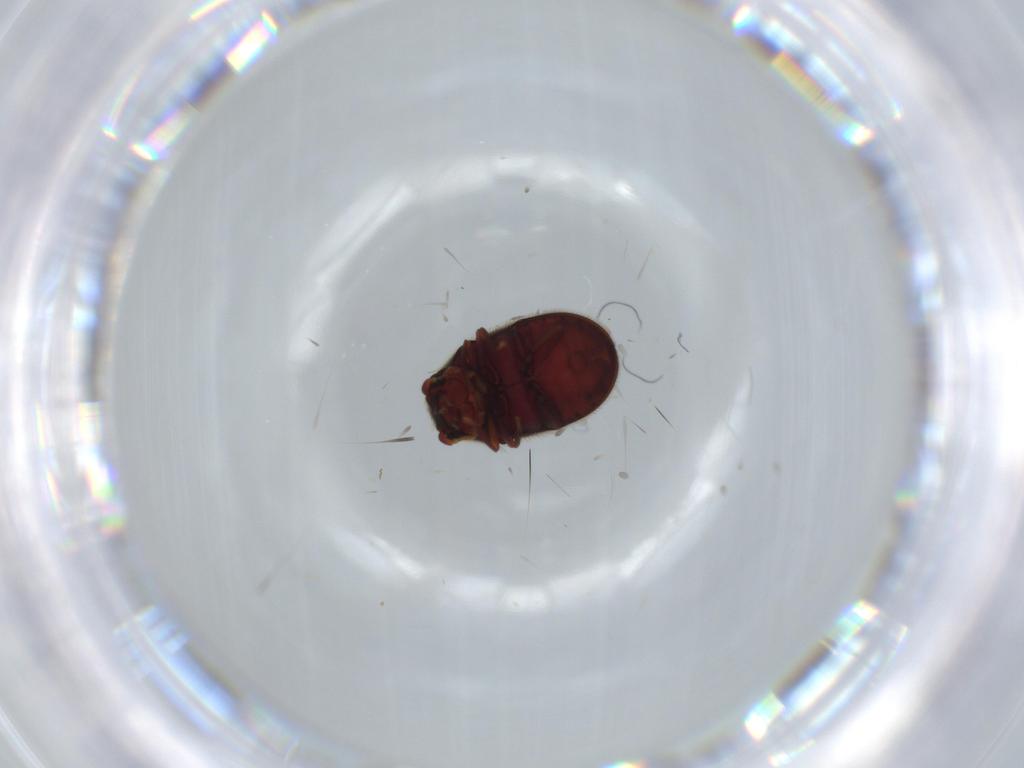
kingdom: Animalia
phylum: Arthropoda
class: Insecta
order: Coleoptera
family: Ptinidae
